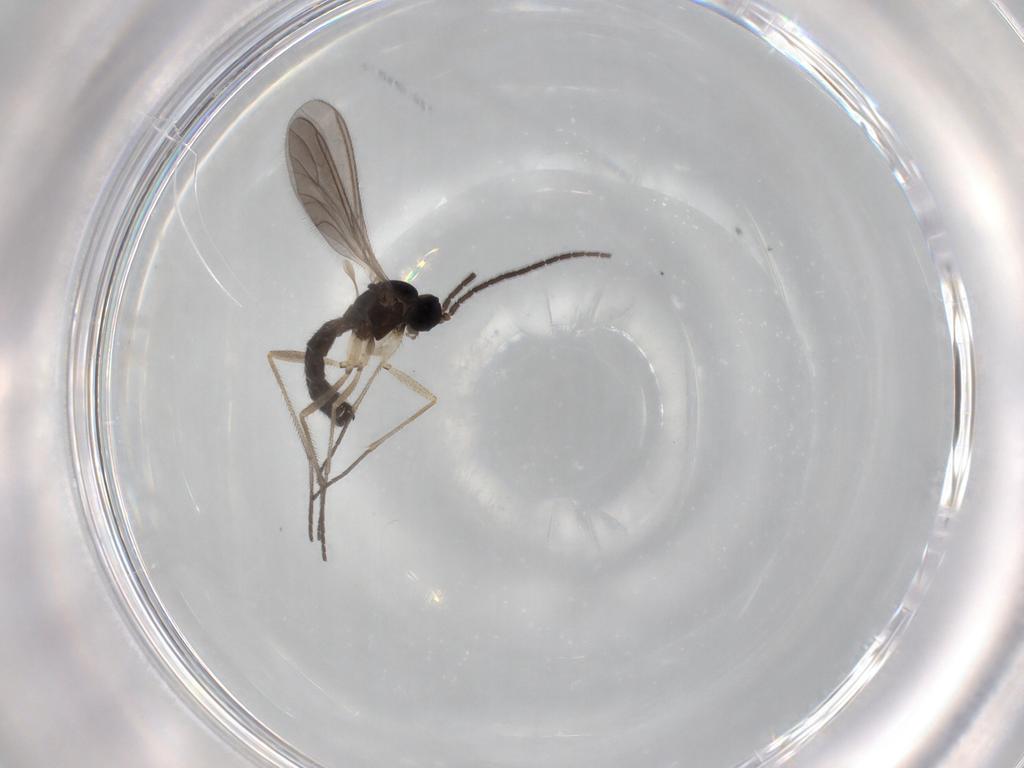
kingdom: Animalia
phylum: Arthropoda
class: Insecta
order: Diptera
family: Sciaridae
